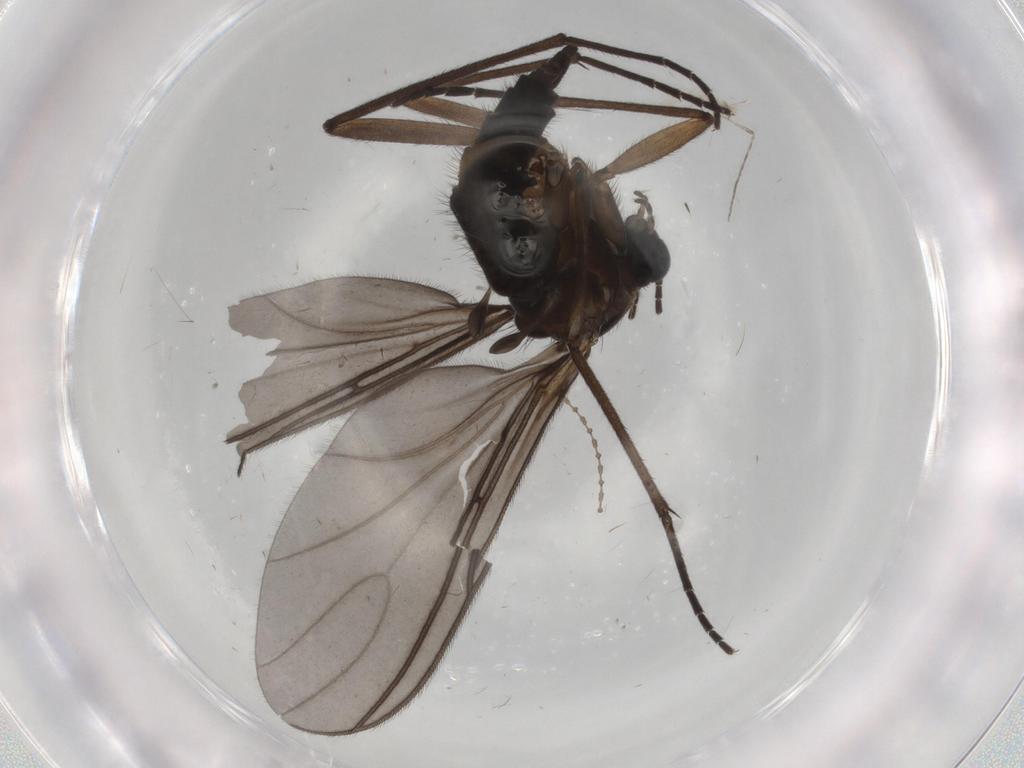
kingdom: Animalia
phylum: Arthropoda
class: Insecta
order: Diptera
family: Sciaridae
